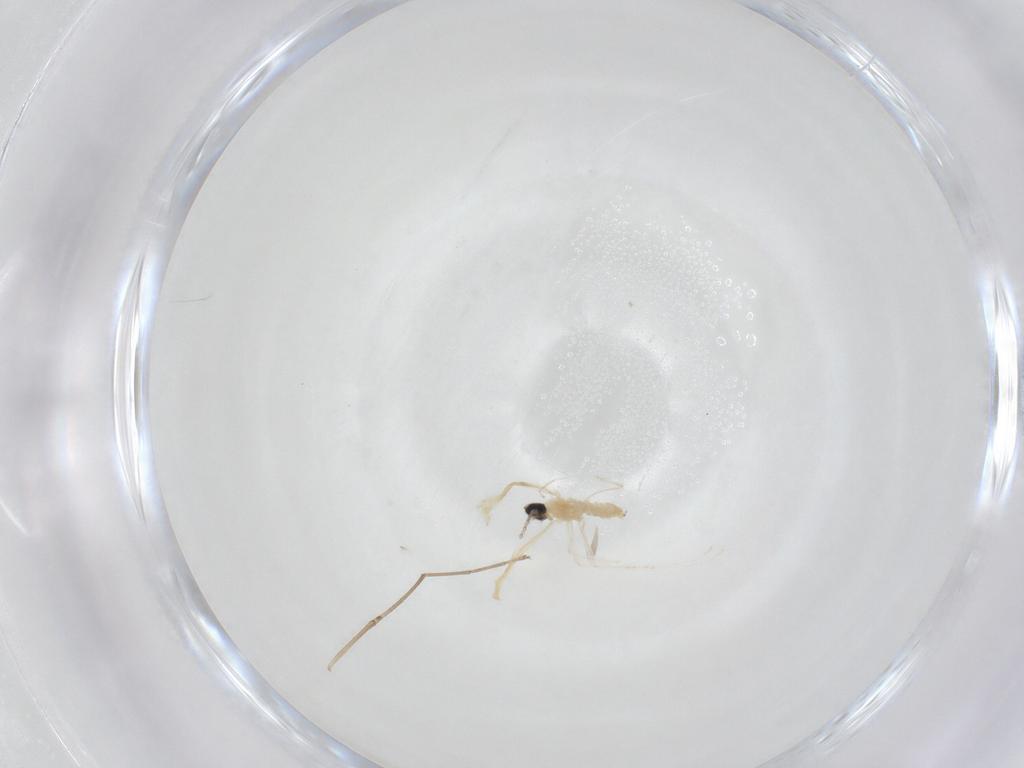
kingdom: Animalia
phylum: Arthropoda
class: Insecta
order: Diptera
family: Cecidomyiidae
